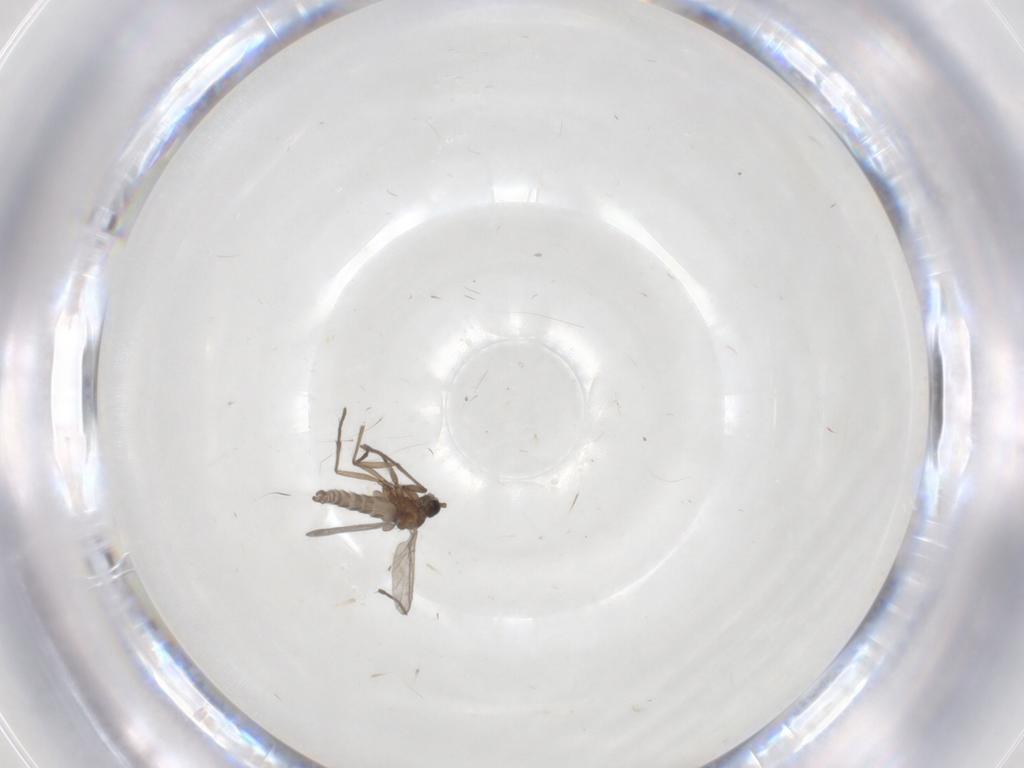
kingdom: Animalia
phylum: Arthropoda
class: Insecta
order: Diptera
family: Sciaridae
